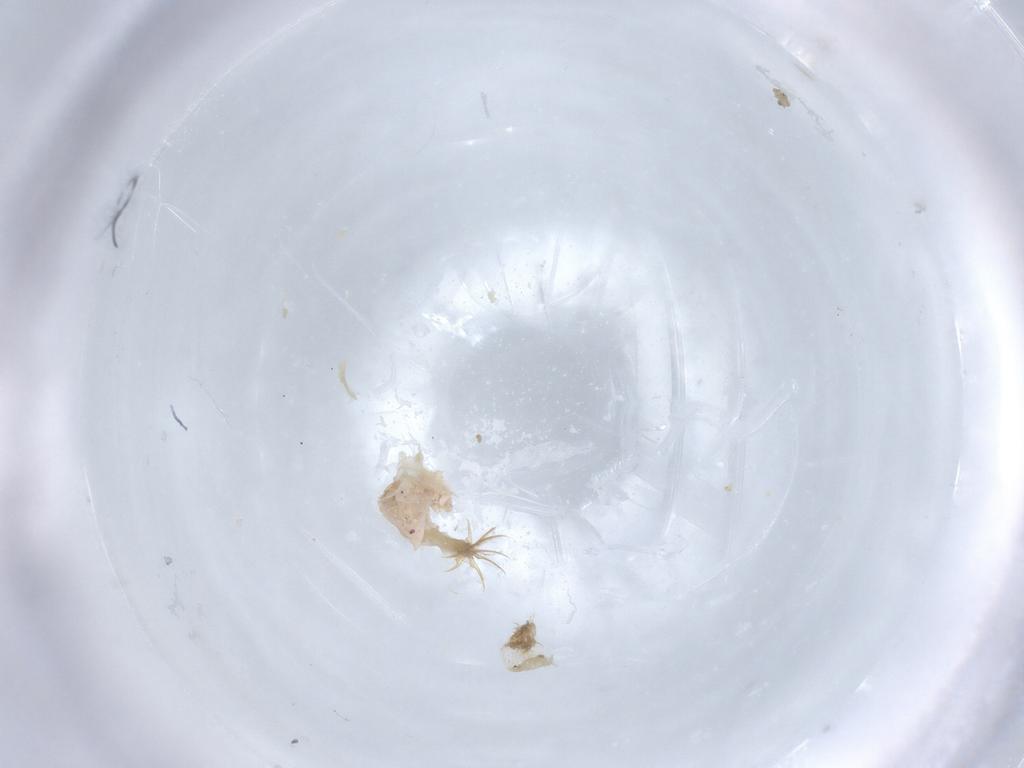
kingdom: Animalia
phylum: Arthropoda
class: Insecta
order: Diptera
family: Chironomidae
